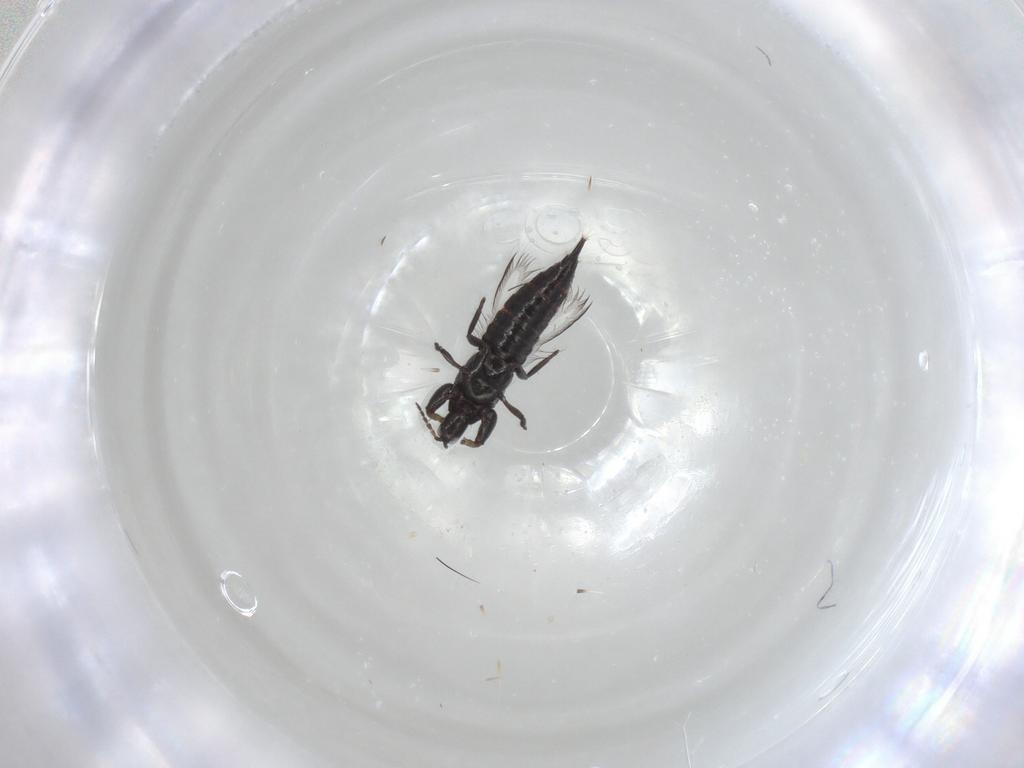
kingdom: Animalia
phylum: Arthropoda
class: Insecta
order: Thysanoptera
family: Phlaeothripidae
